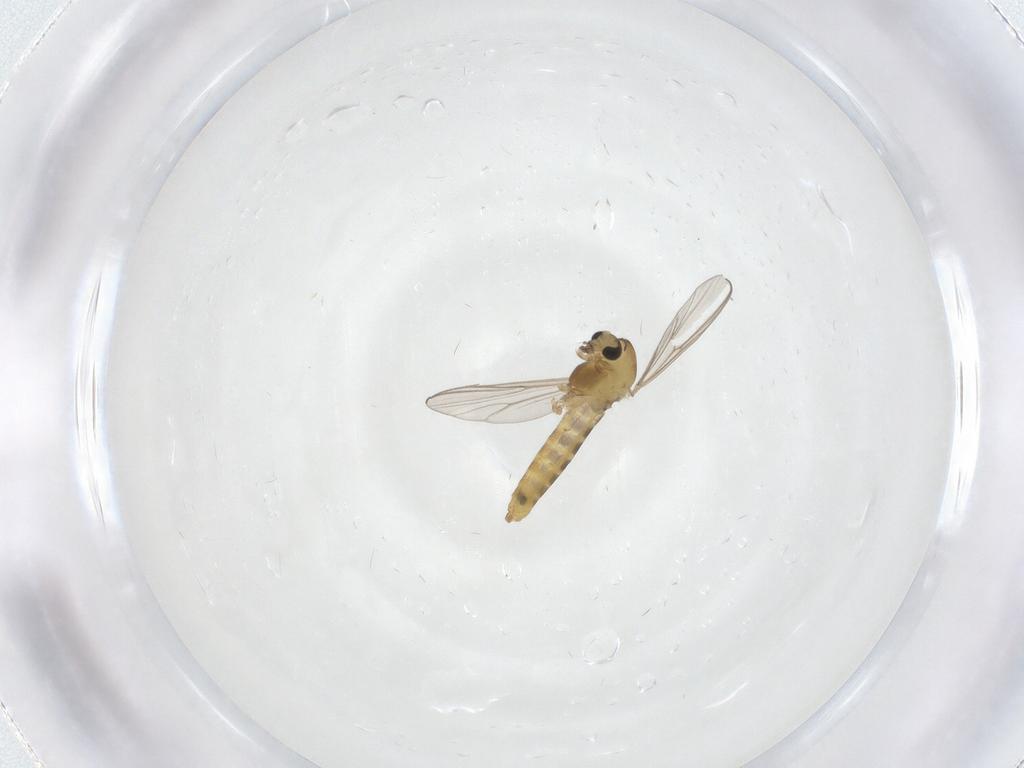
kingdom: Animalia
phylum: Arthropoda
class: Insecta
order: Diptera
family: Chironomidae
